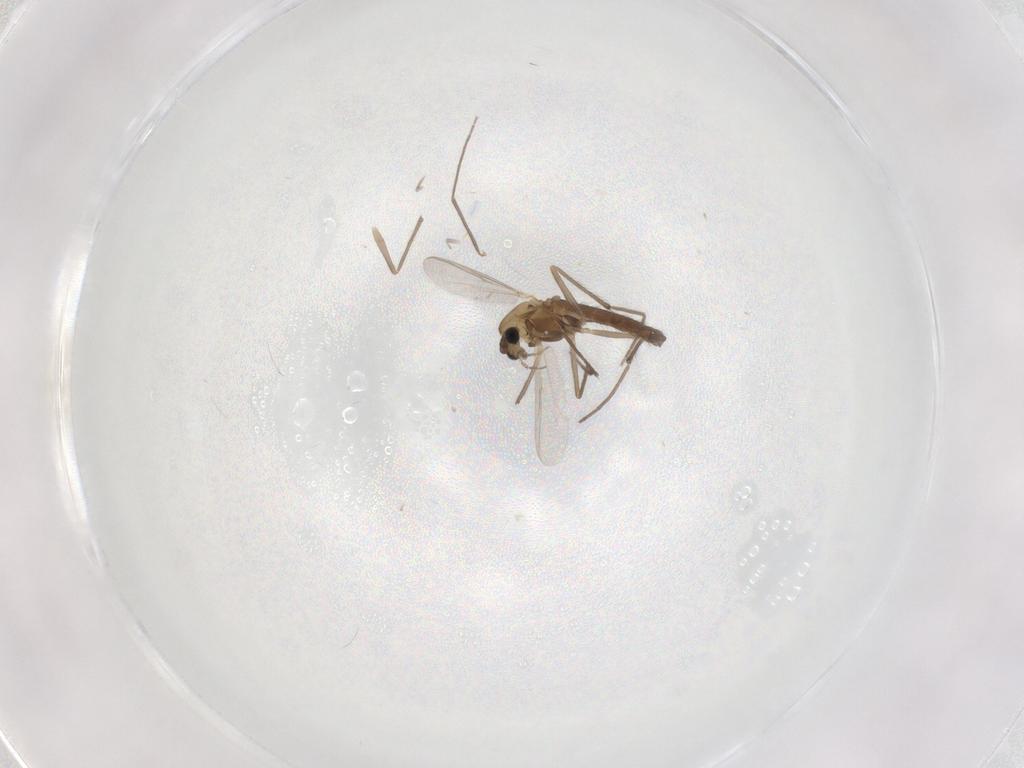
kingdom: Animalia
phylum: Arthropoda
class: Insecta
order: Diptera
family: Chironomidae
